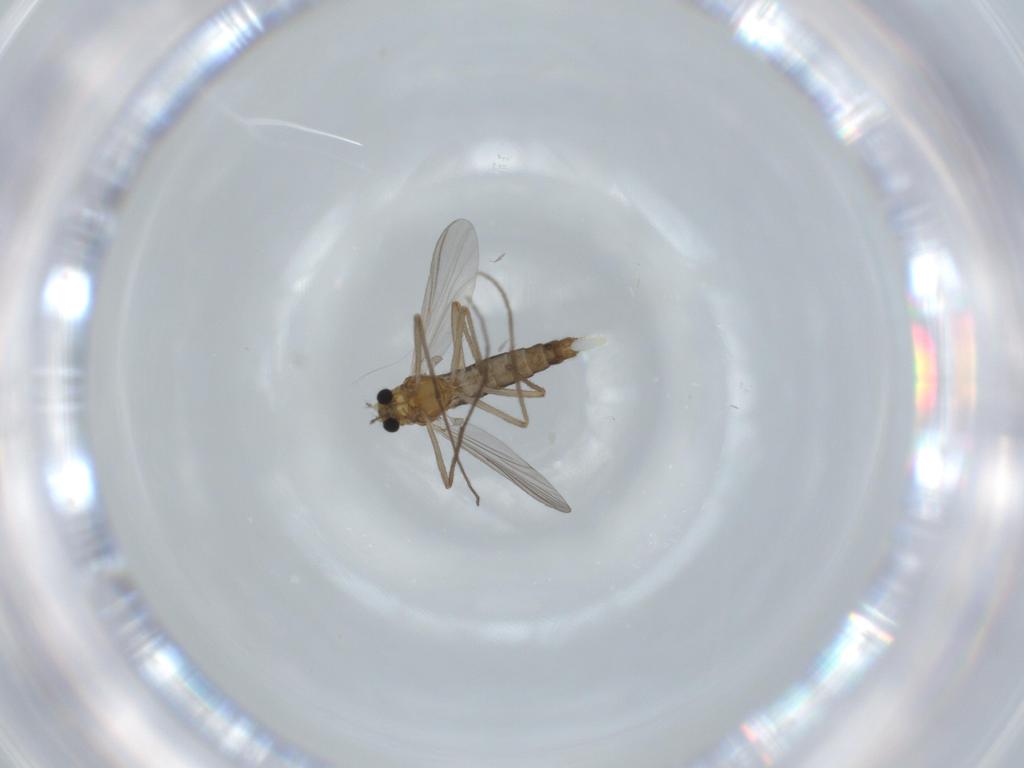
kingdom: Animalia
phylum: Arthropoda
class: Insecta
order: Diptera
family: Chironomidae
